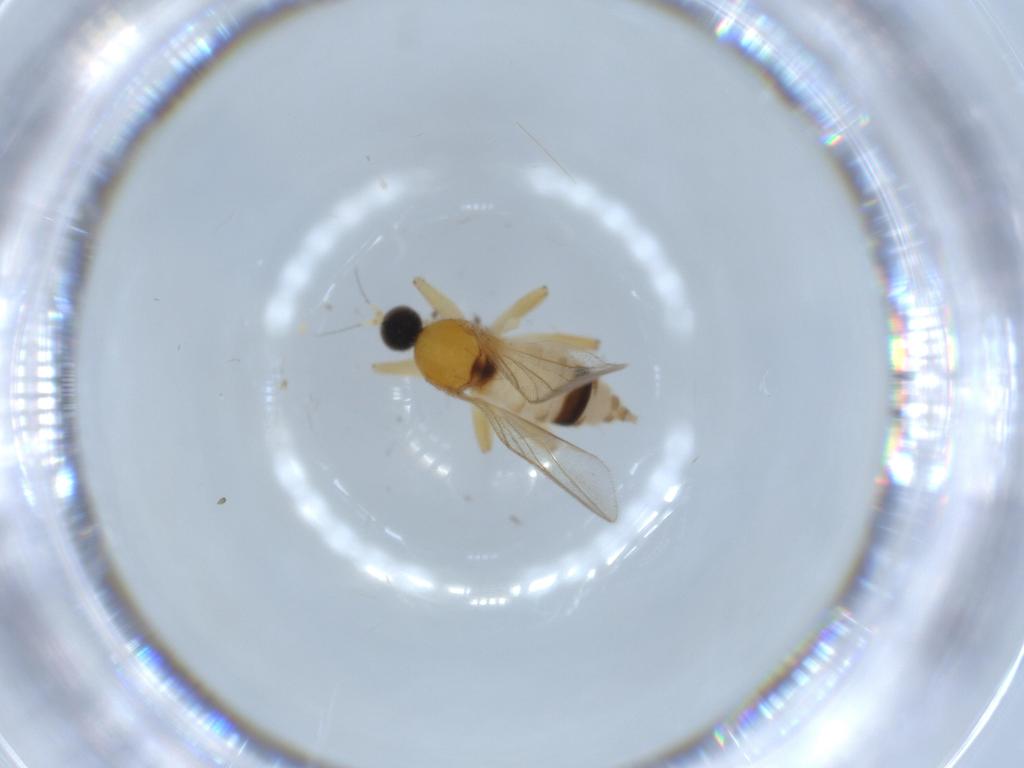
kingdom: Animalia
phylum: Arthropoda
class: Insecta
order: Diptera
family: Hybotidae
